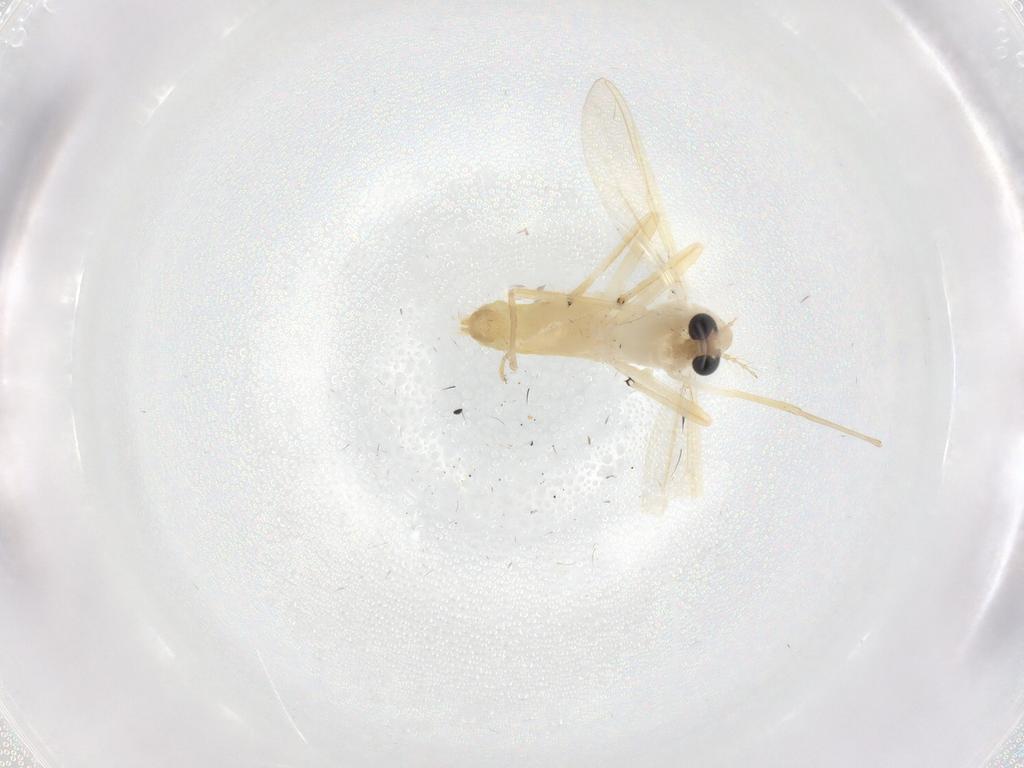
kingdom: Animalia
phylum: Arthropoda
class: Insecta
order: Diptera
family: Chironomidae
